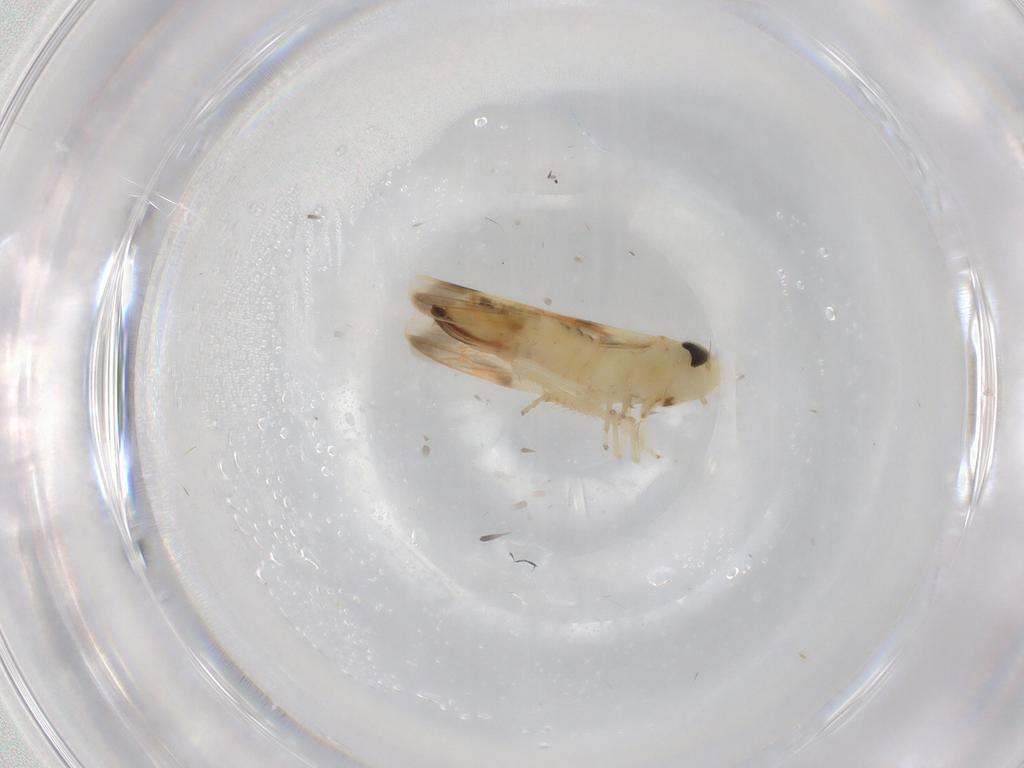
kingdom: Animalia
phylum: Arthropoda
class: Insecta
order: Hemiptera
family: Cicadellidae
